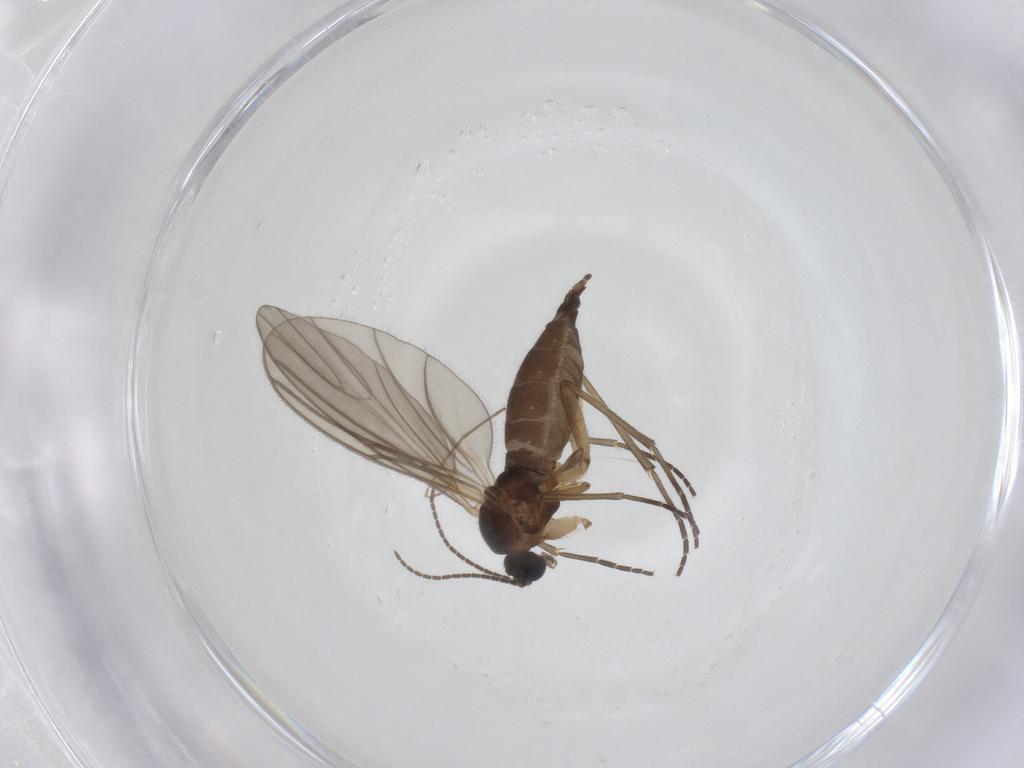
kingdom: Animalia
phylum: Arthropoda
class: Insecta
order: Diptera
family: Sciaridae
